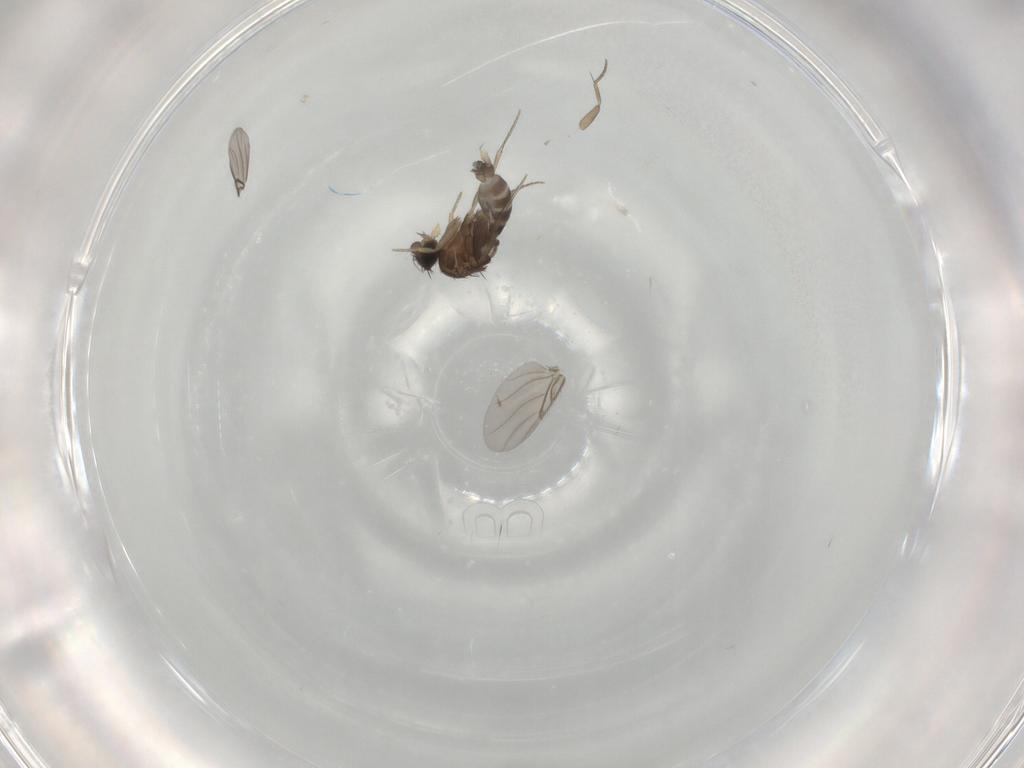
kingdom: Animalia
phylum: Arthropoda
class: Insecta
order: Diptera
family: Phoridae
